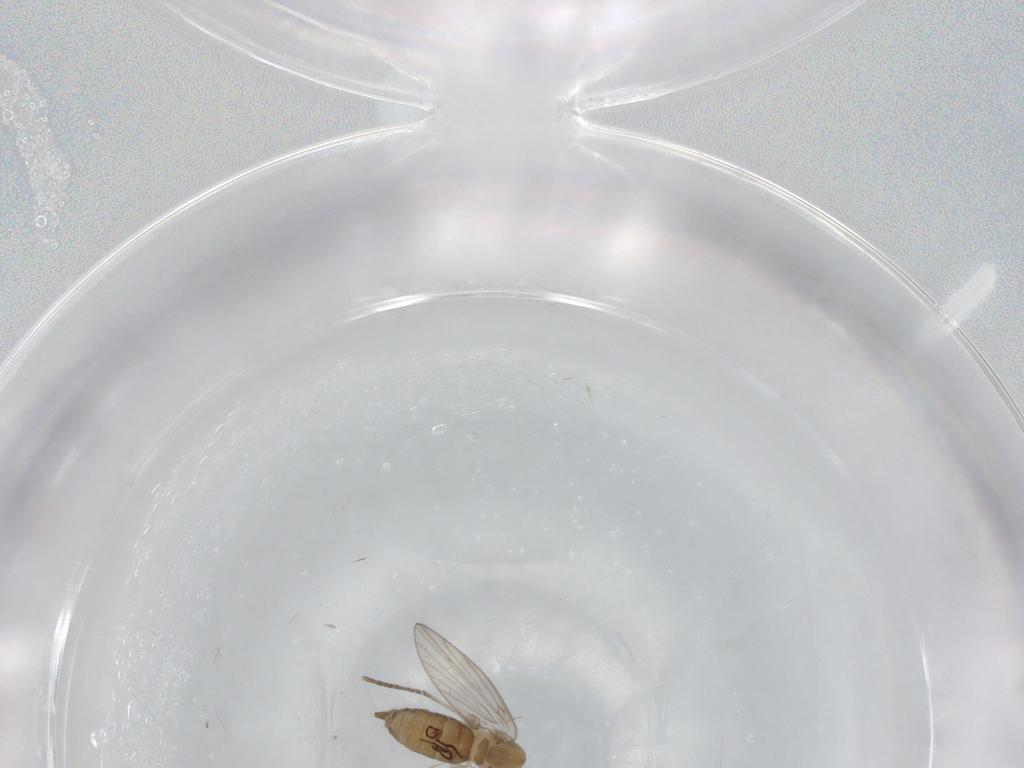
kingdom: Animalia
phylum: Arthropoda
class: Insecta
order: Diptera
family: Psychodidae
